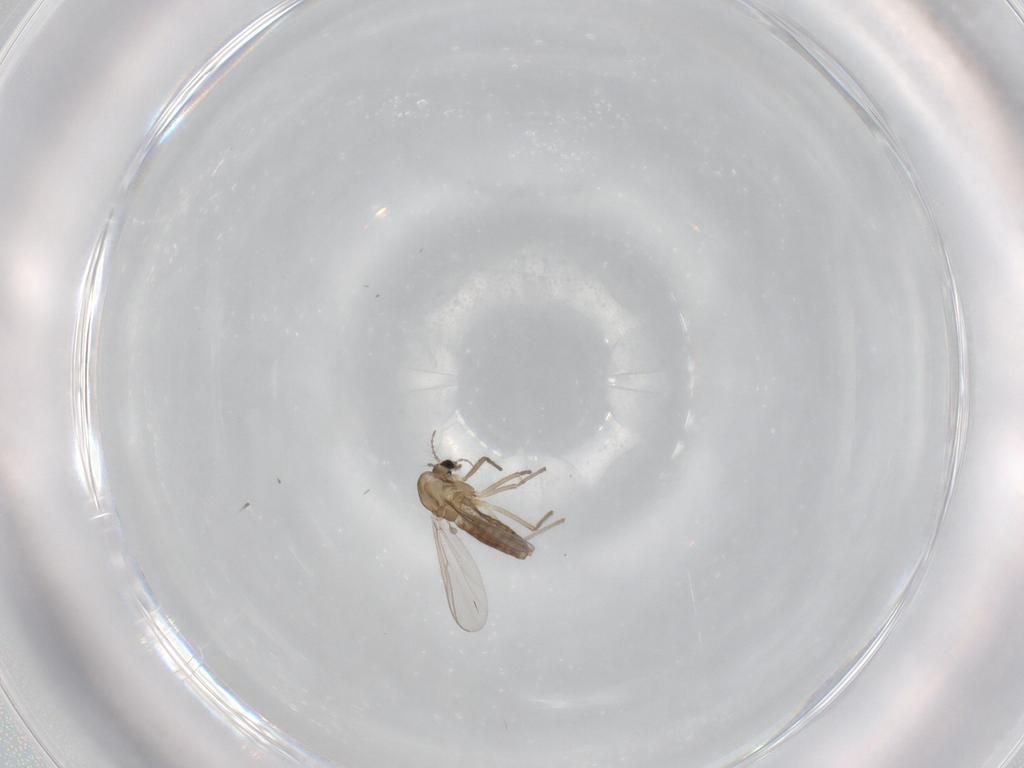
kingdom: Animalia
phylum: Arthropoda
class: Insecta
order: Diptera
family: Chironomidae
